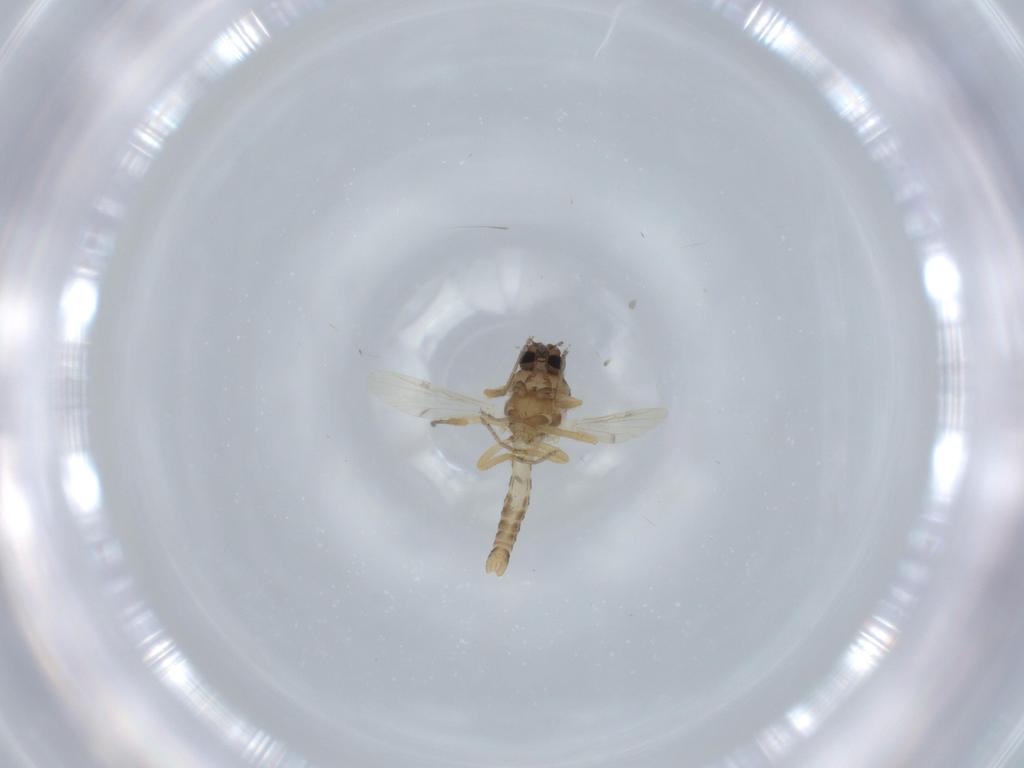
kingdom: Animalia
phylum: Arthropoda
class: Insecta
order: Diptera
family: Ceratopogonidae
